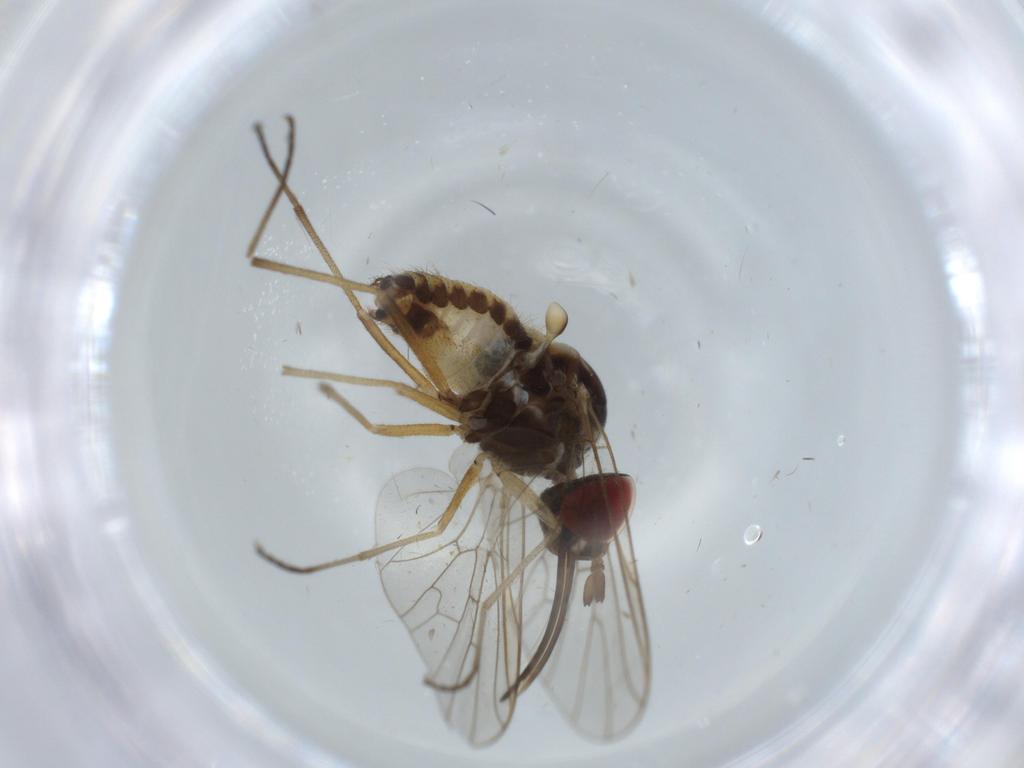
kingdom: Animalia
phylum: Arthropoda
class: Insecta
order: Diptera
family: Bombyliidae
